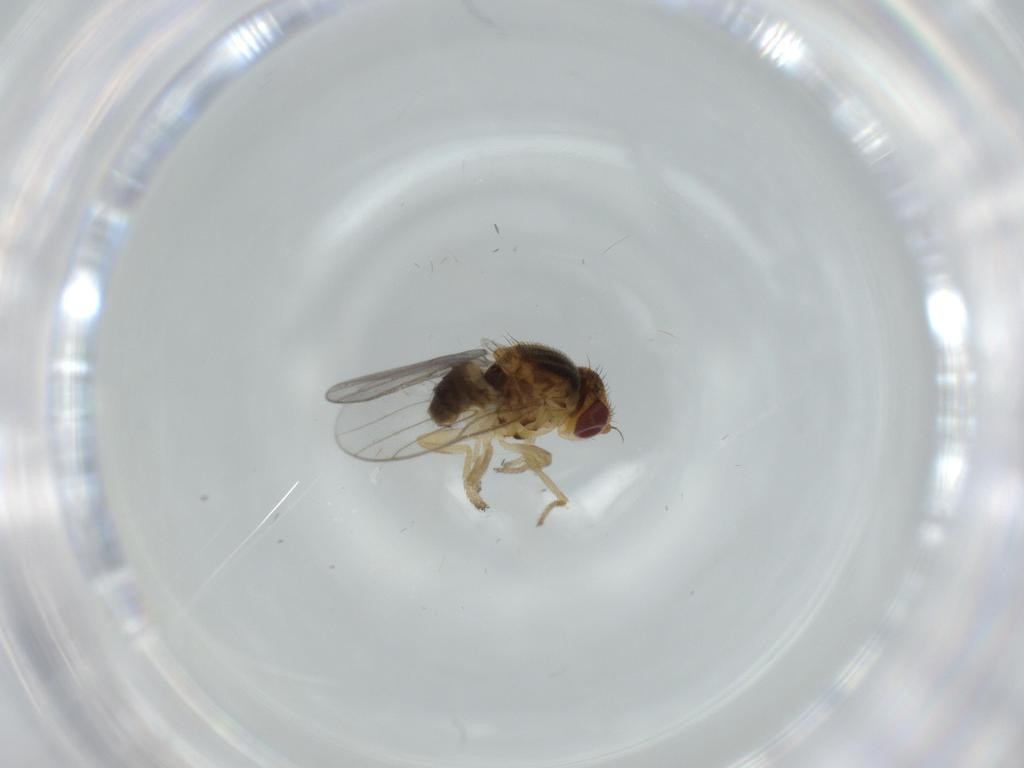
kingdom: Animalia
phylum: Arthropoda
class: Insecta
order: Diptera
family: Chloropidae
